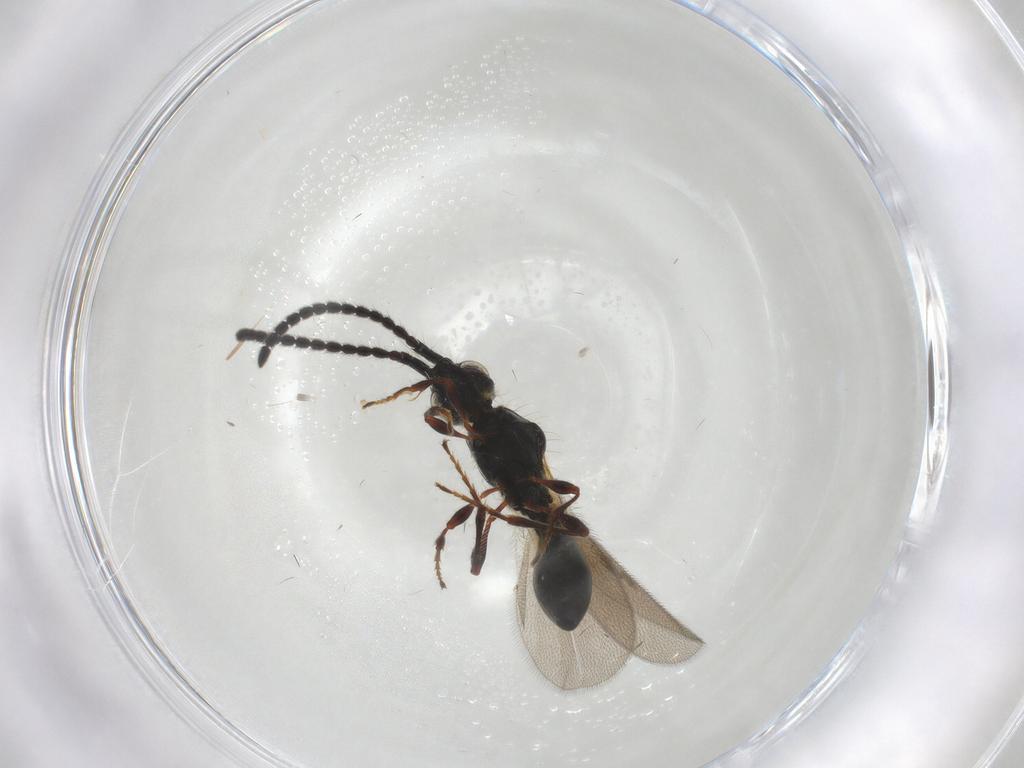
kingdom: Animalia
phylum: Arthropoda
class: Insecta
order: Hymenoptera
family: Diapriidae
